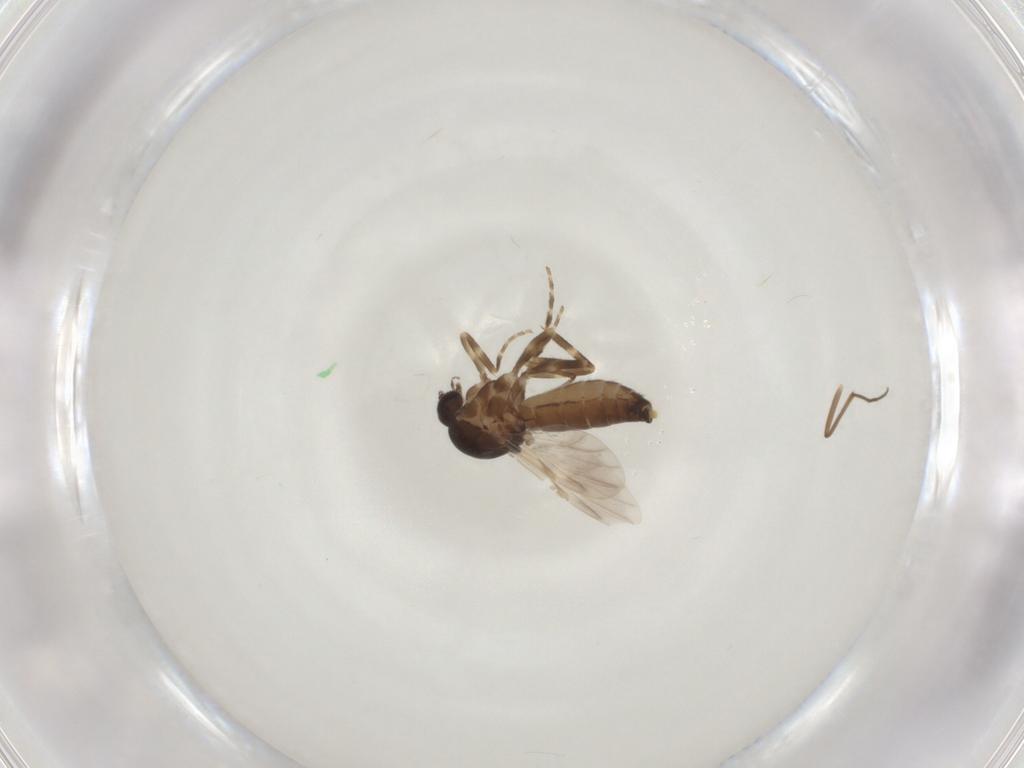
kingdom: Animalia
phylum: Arthropoda
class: Insecta
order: Diptera
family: Ceratopogonidae
